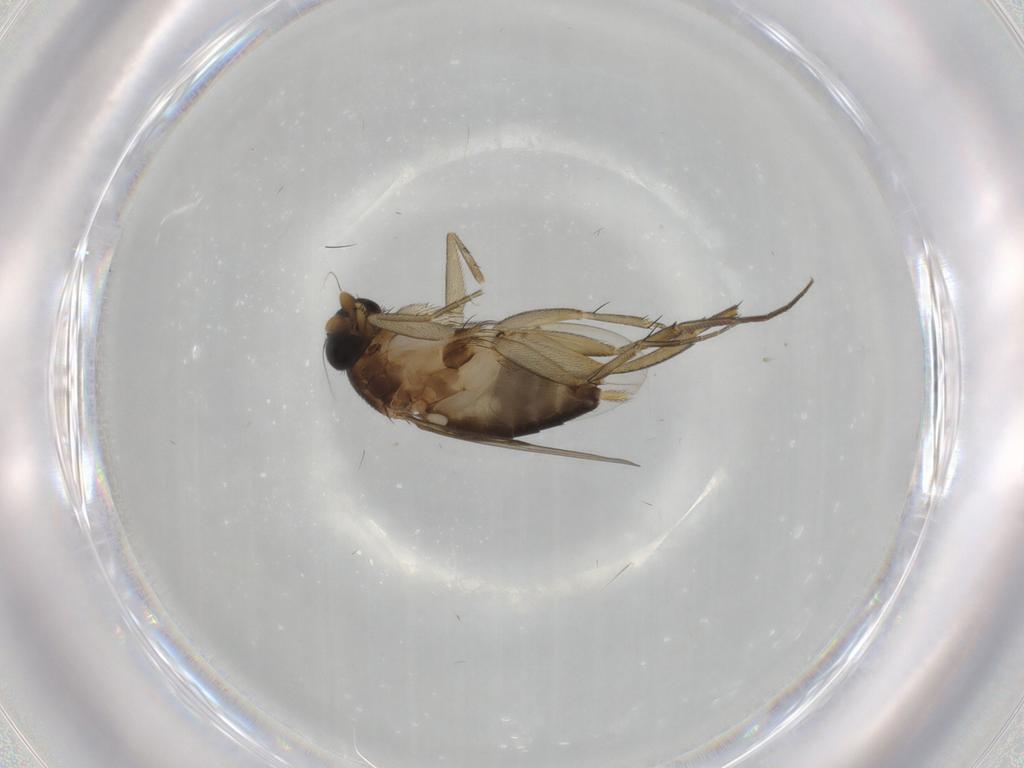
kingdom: Animalia
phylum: Arthropoda
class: Insecta
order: Diptera
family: Phoridae
